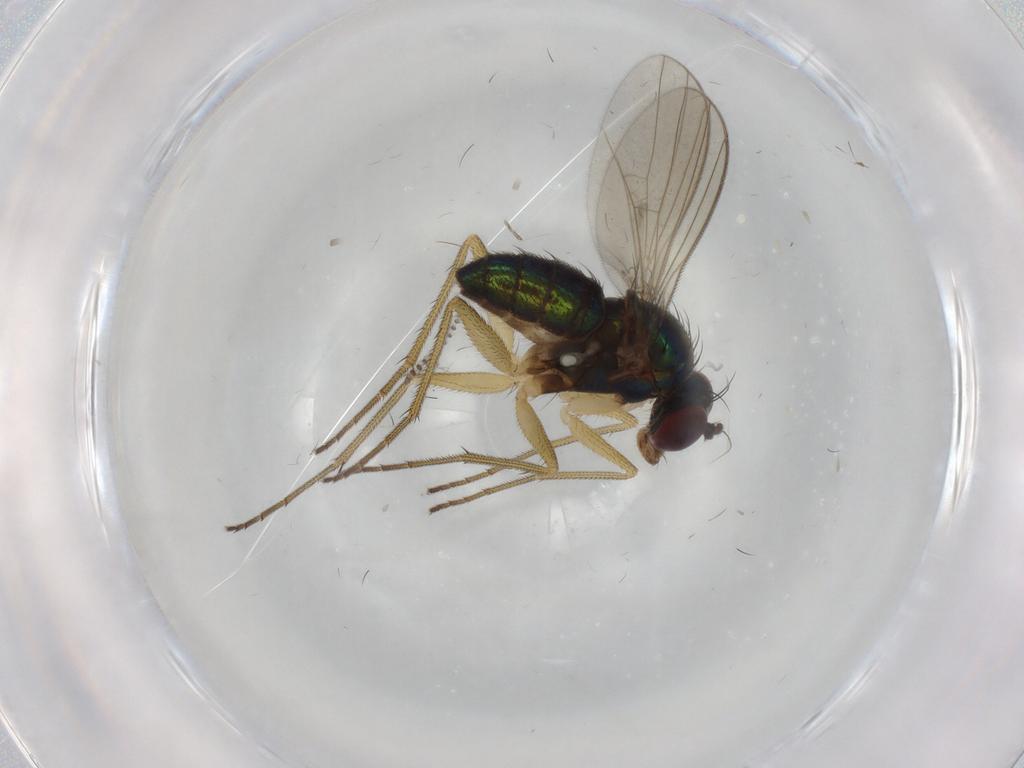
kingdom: Animalia
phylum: Arthropoda
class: Insecta
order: Diptera
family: Dolichopodidae
